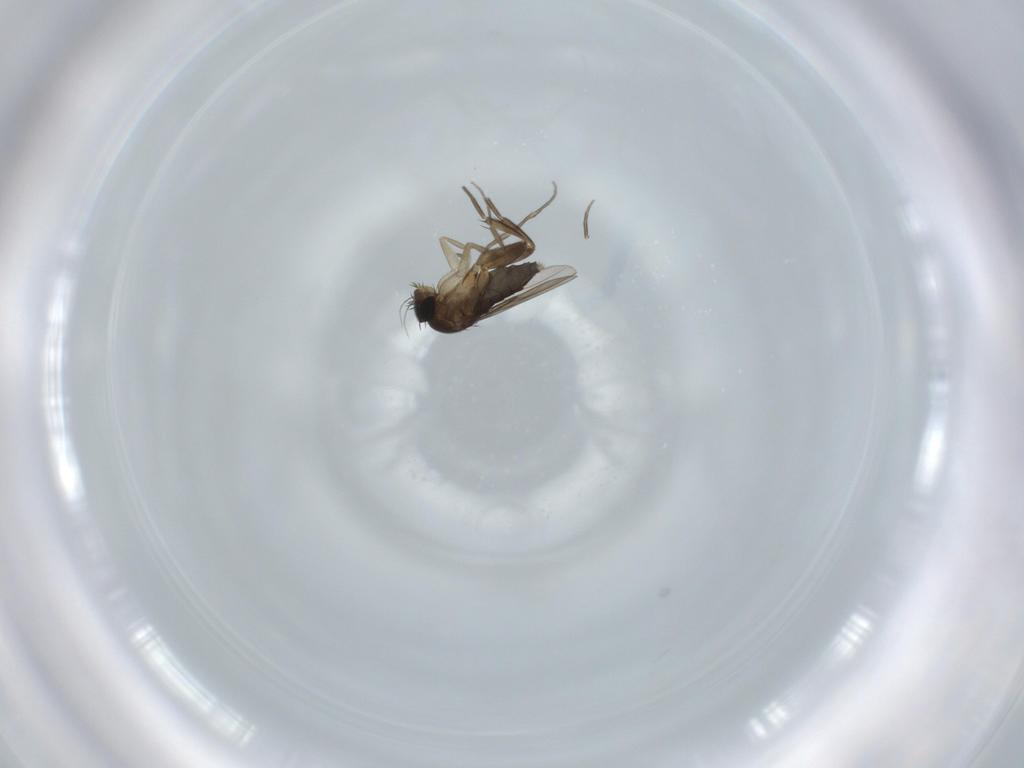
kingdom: Animalia
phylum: Arthropoda
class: Insecta
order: Diptera
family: Phoridae
